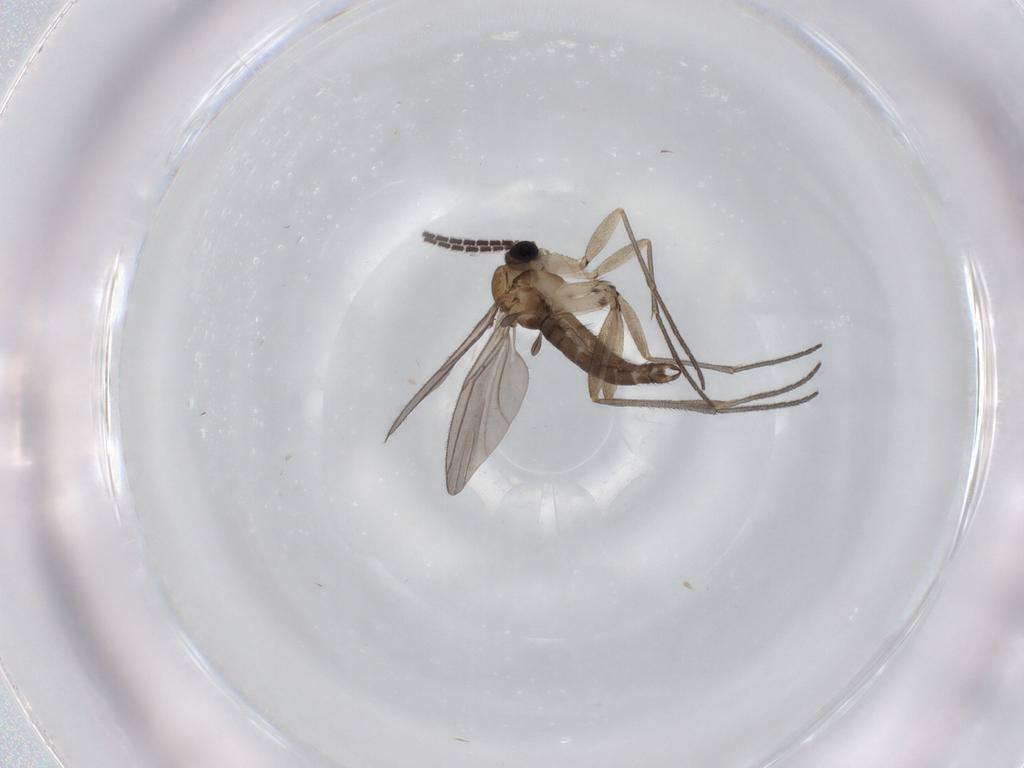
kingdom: Animalia
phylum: Arthropoda
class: Insecta
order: Diptera
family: Sciaridae
